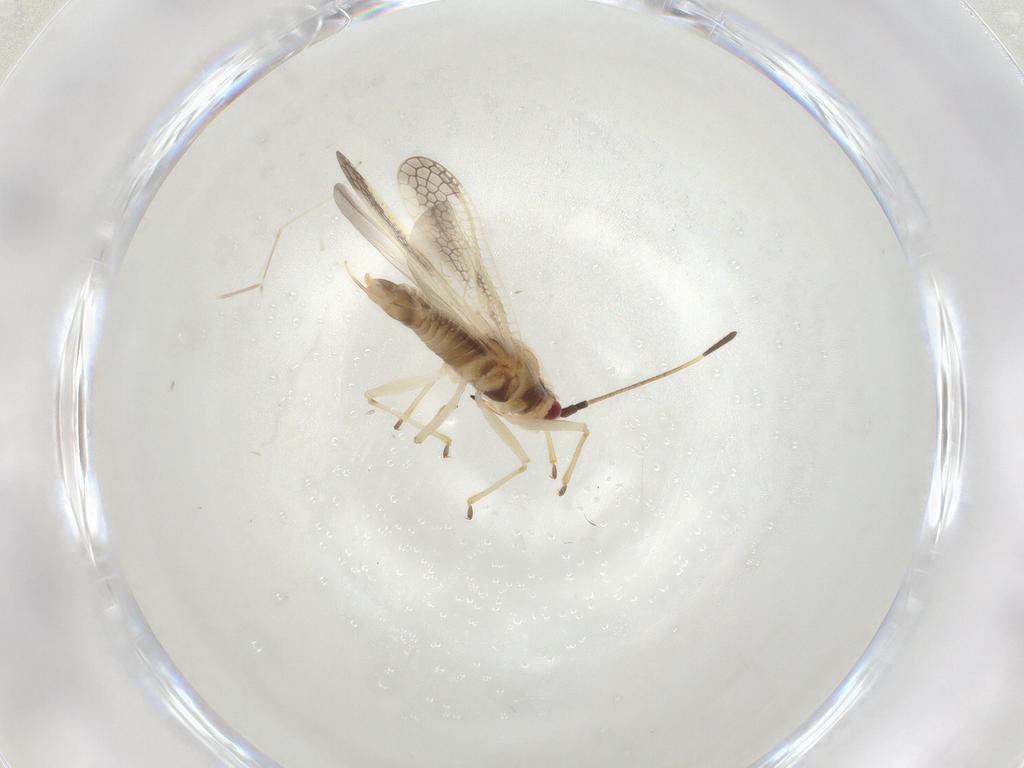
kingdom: Animalia
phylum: Arthropoda
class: Insecta
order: Hemiptera
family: Tingidae
